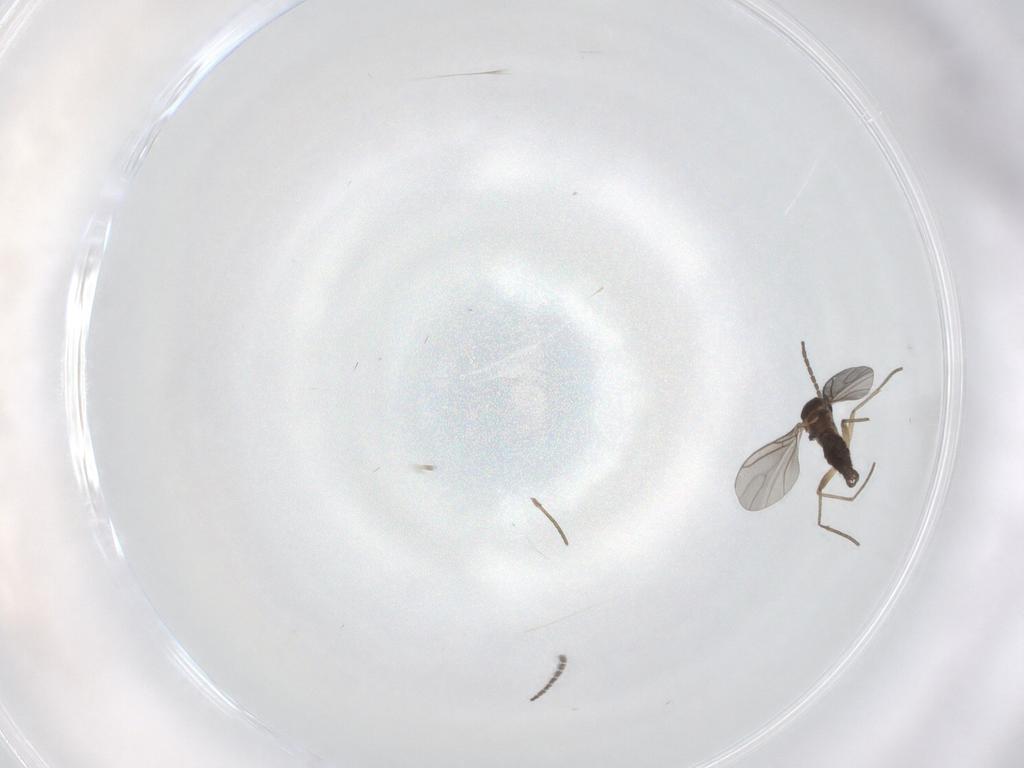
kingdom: Animalia
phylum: Arthropoda
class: Insecta
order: Diptera
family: Sciaridae
